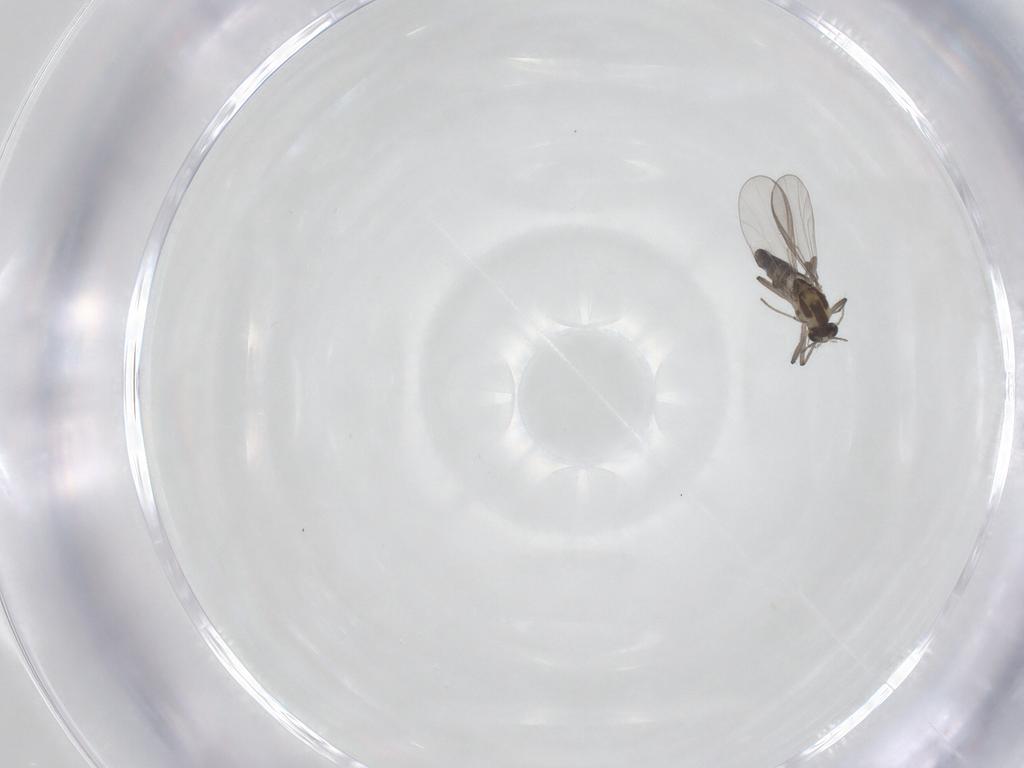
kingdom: Animalia
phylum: Arthropoda
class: Insecta
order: Diptera
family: Chironomidae
